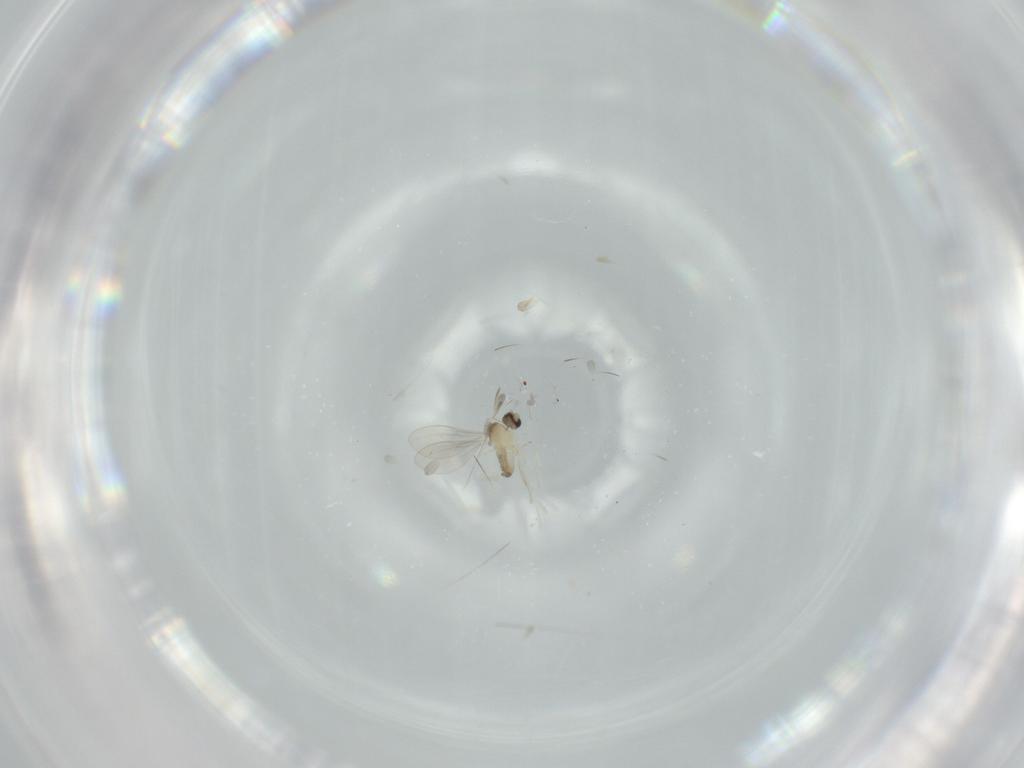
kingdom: Animalia
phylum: Arthropoda
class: Insecta
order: Diptera
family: Cecidomyiidae
